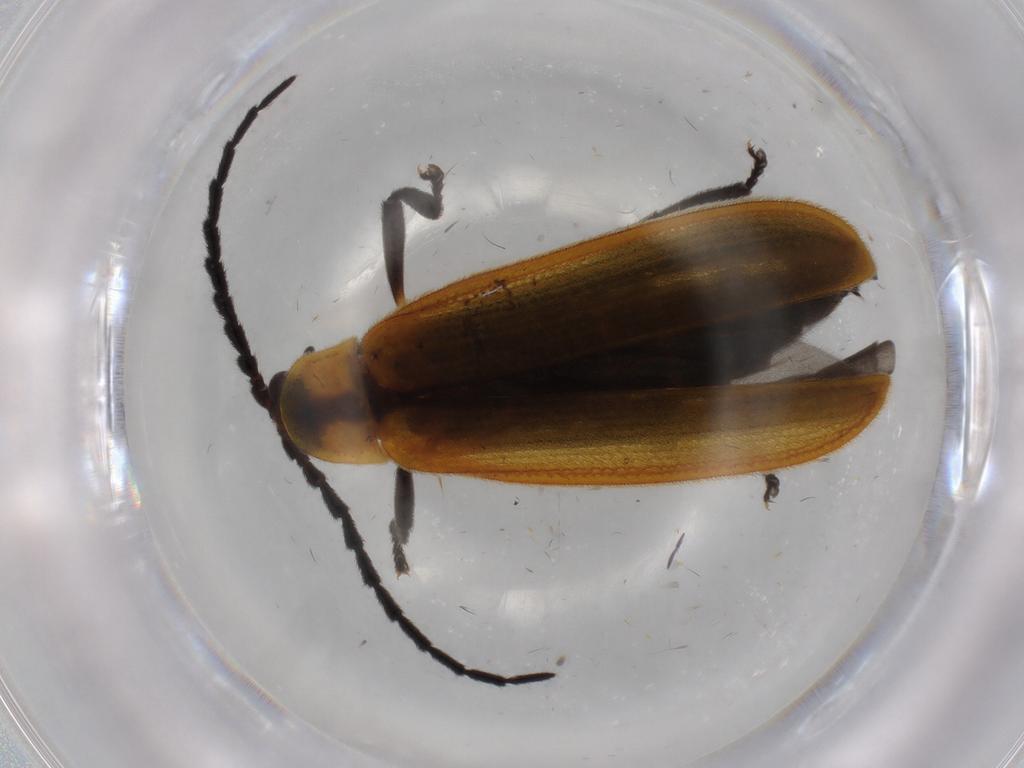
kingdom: Animalia
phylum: Arthropoda
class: Insecta
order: Coleoptera
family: Lycidae
